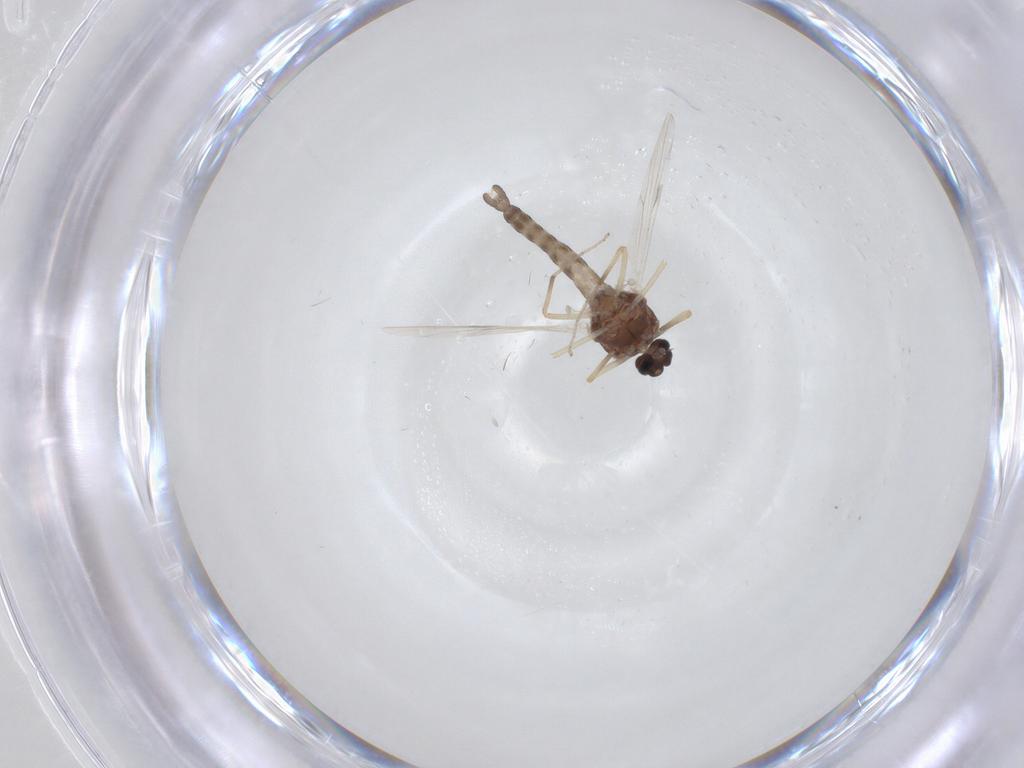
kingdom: Animalia
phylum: Arthropoda
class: Insecta
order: Diptera
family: Ceratopogonidae
